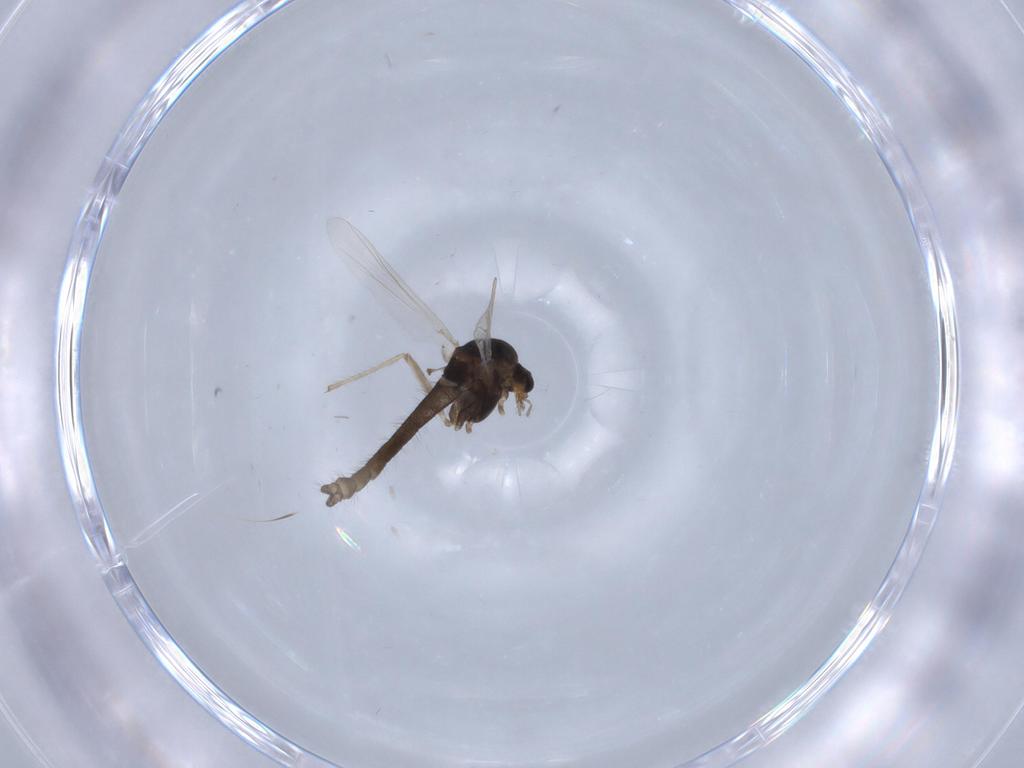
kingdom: Animalia
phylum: Arthropoda
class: Insecta
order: Diptera
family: Chironomidae
